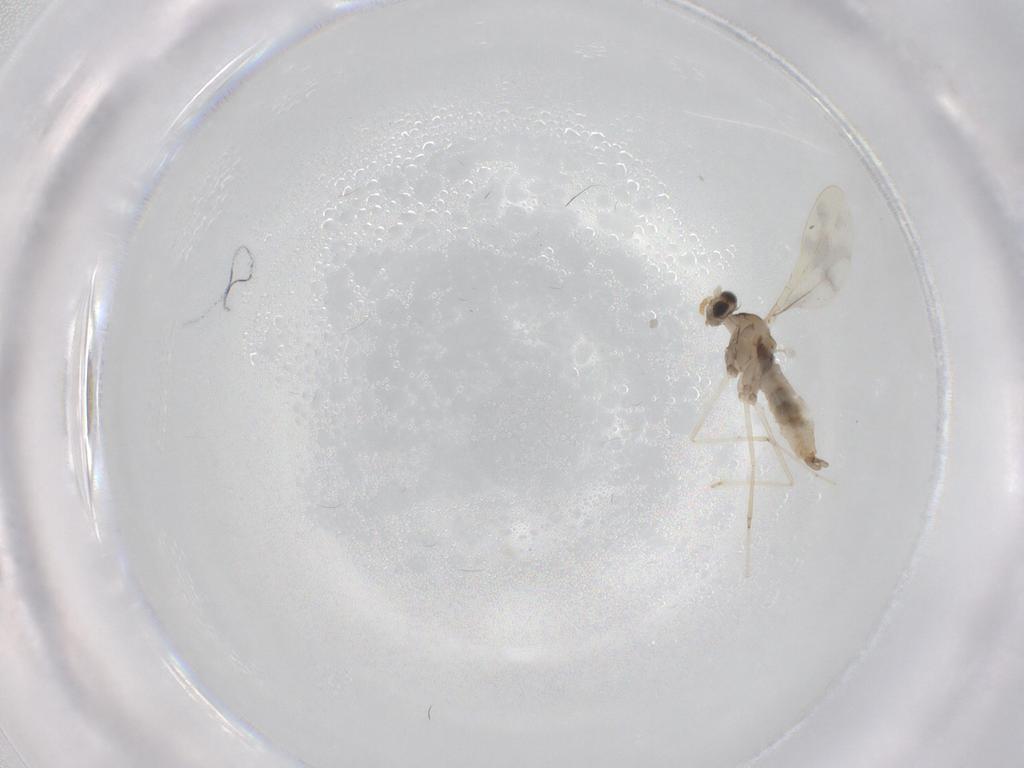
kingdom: Animalia
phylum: Arthropoda
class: Insecta
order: Diptera
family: Cecidomyiidae
